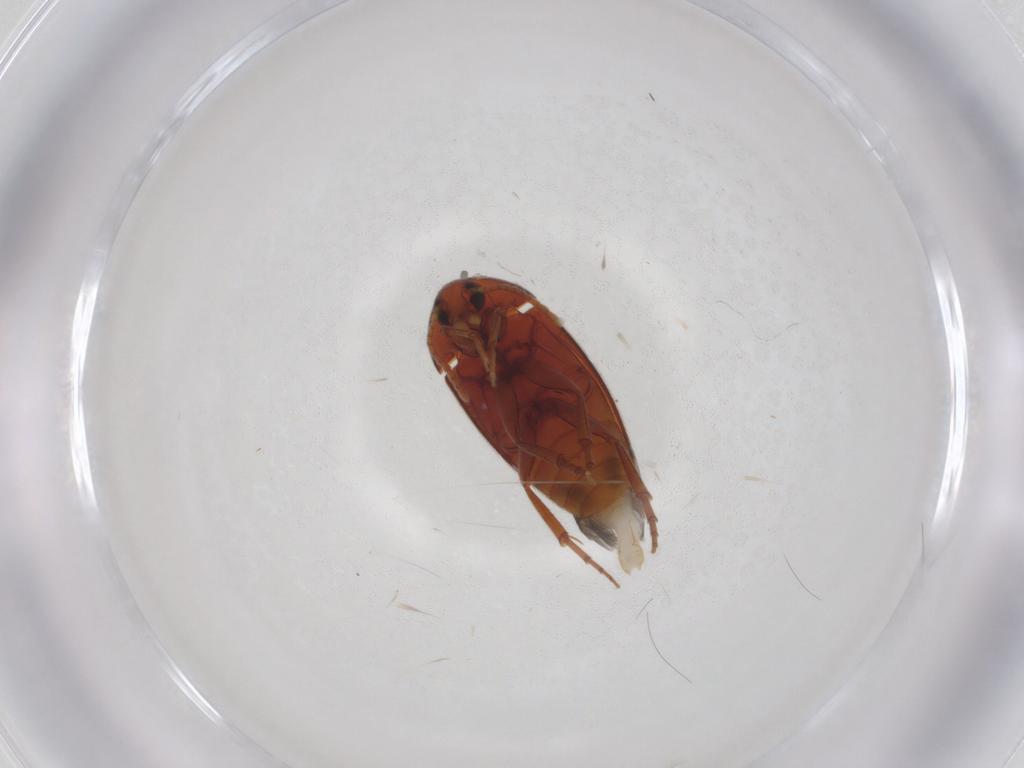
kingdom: Animalia
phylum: Arthropoda
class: Insecta
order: Coleoptera
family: Scraptiidae
